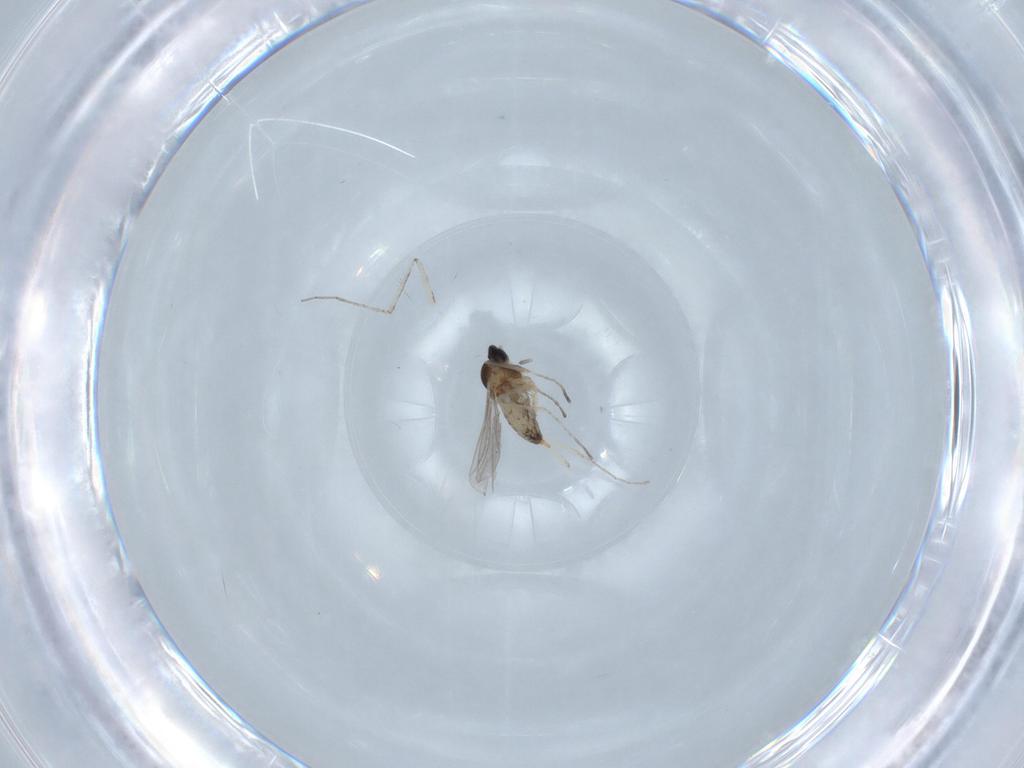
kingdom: Animalia
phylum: Arthropoda
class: Insecta
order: Diptera
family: Cecidomyiidae
